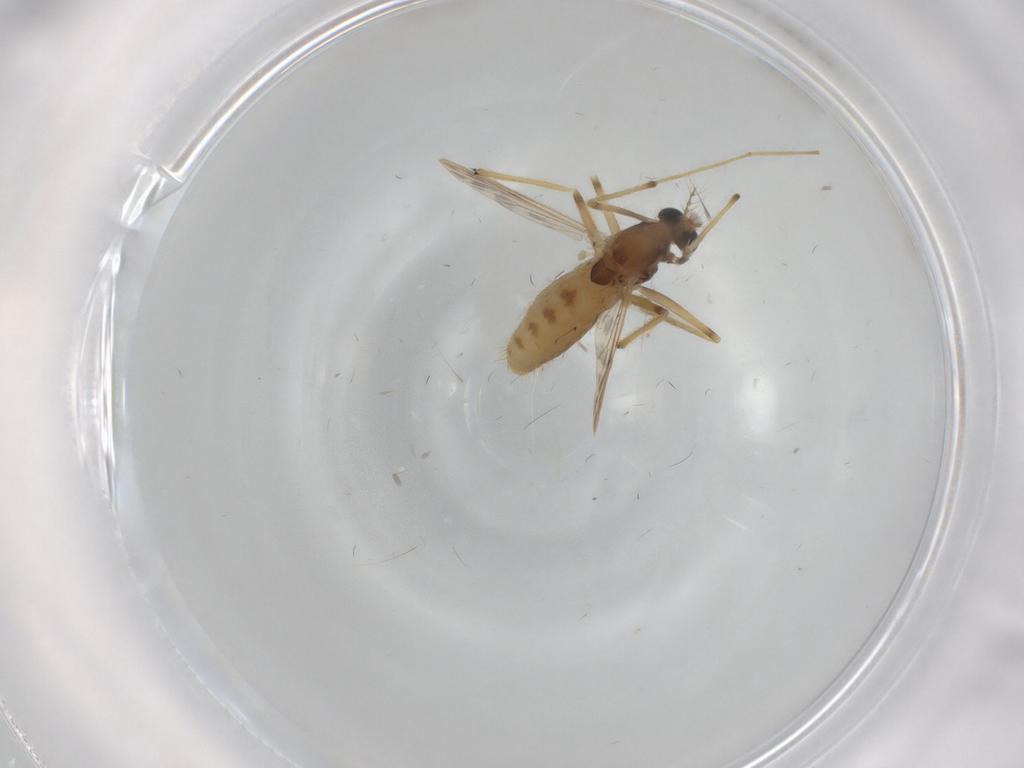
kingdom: Animalia
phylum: Arthropoda
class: Insecta
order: Diptera
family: Chironomidae
